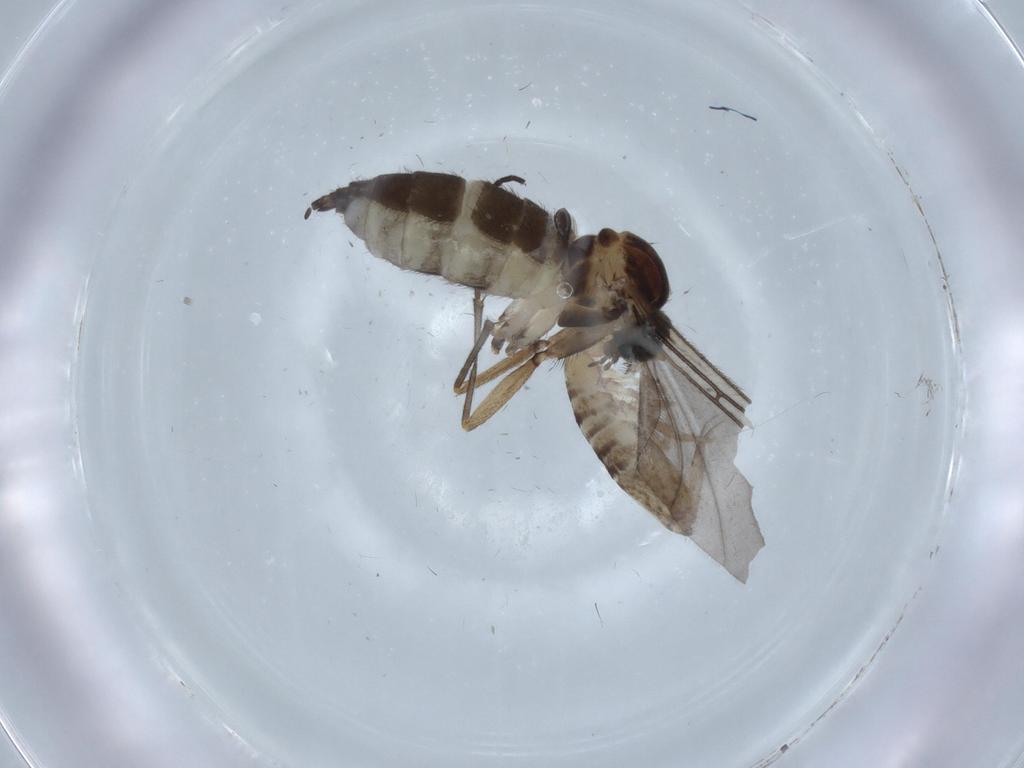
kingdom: Animalia
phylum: Arthropoda
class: Insecta
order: Diptera
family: Sciaridae
